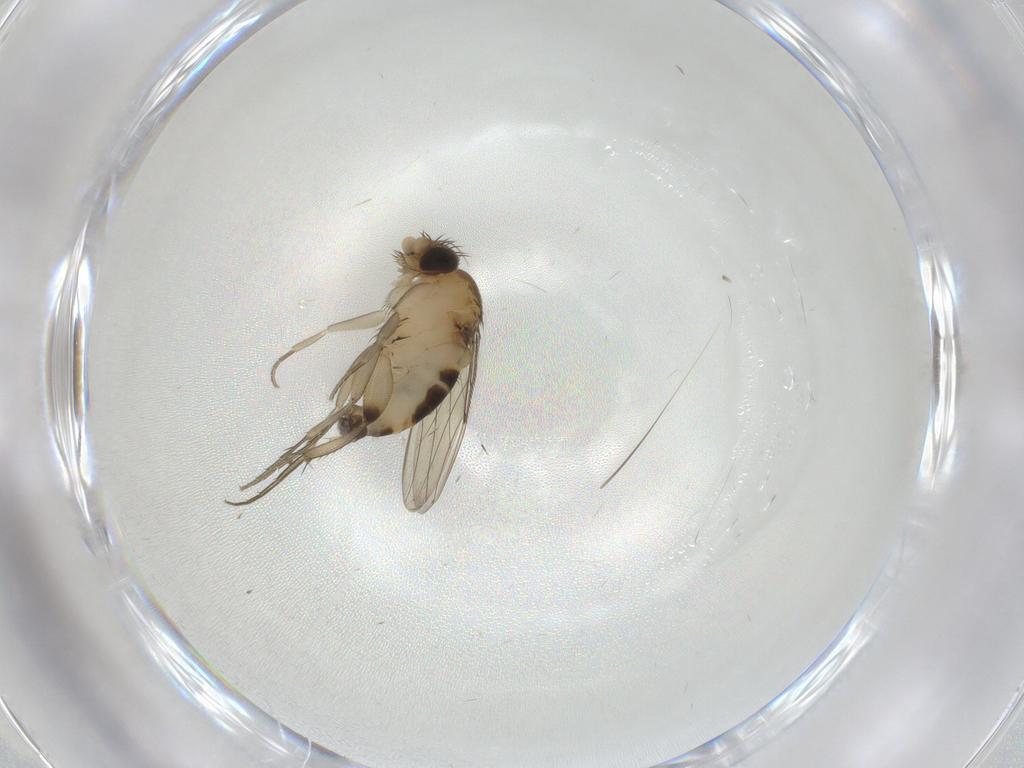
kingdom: Animalia
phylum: Arthropoda
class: Insecta
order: Diptera
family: Phoridae
